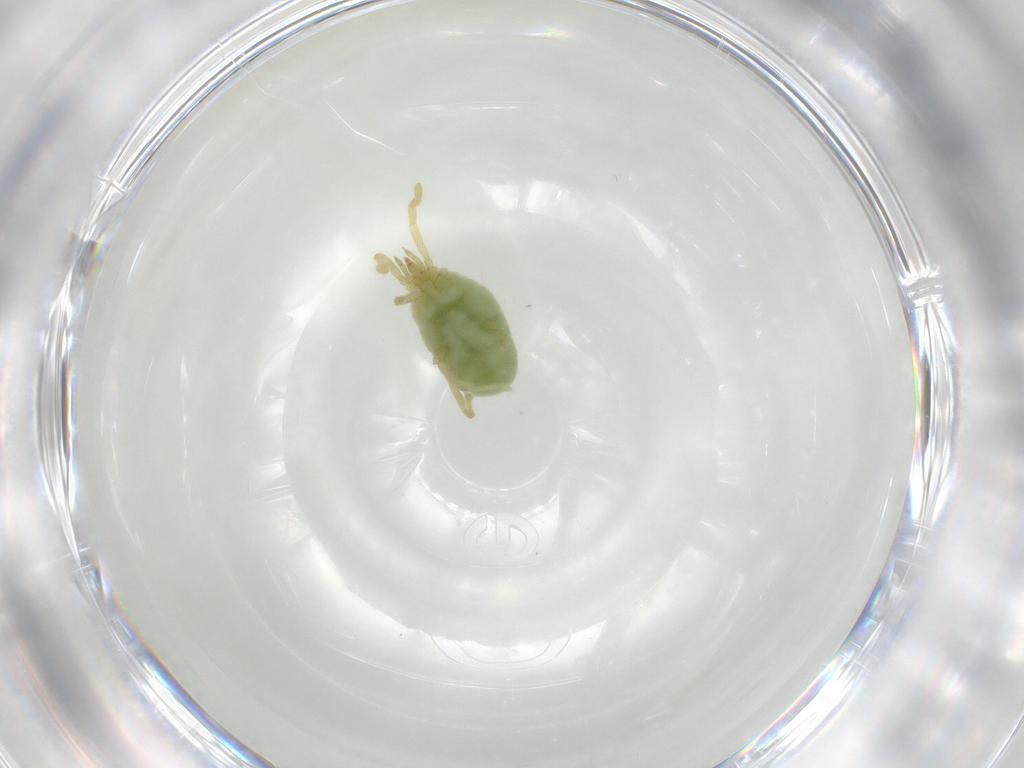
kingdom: Animalia
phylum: Arthropoda
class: Arachnida
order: Trombidiformes
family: Erythraeidae
